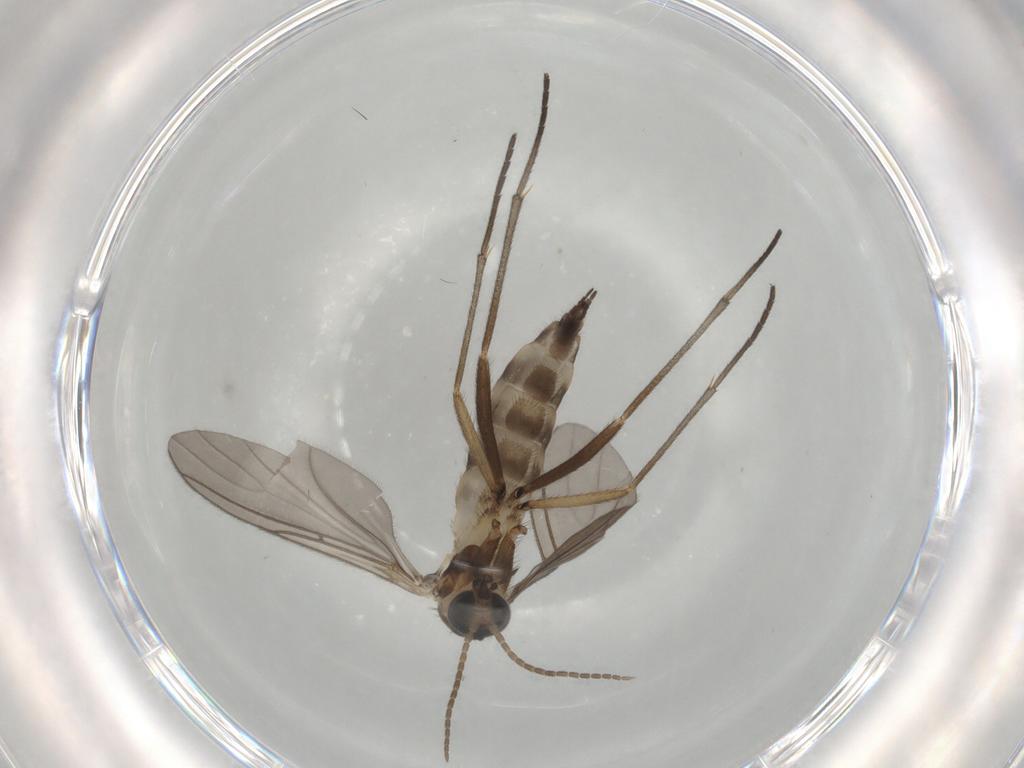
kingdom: Animalia
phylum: Arthropoda
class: Insecta
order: Diptera
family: Sciaridae
